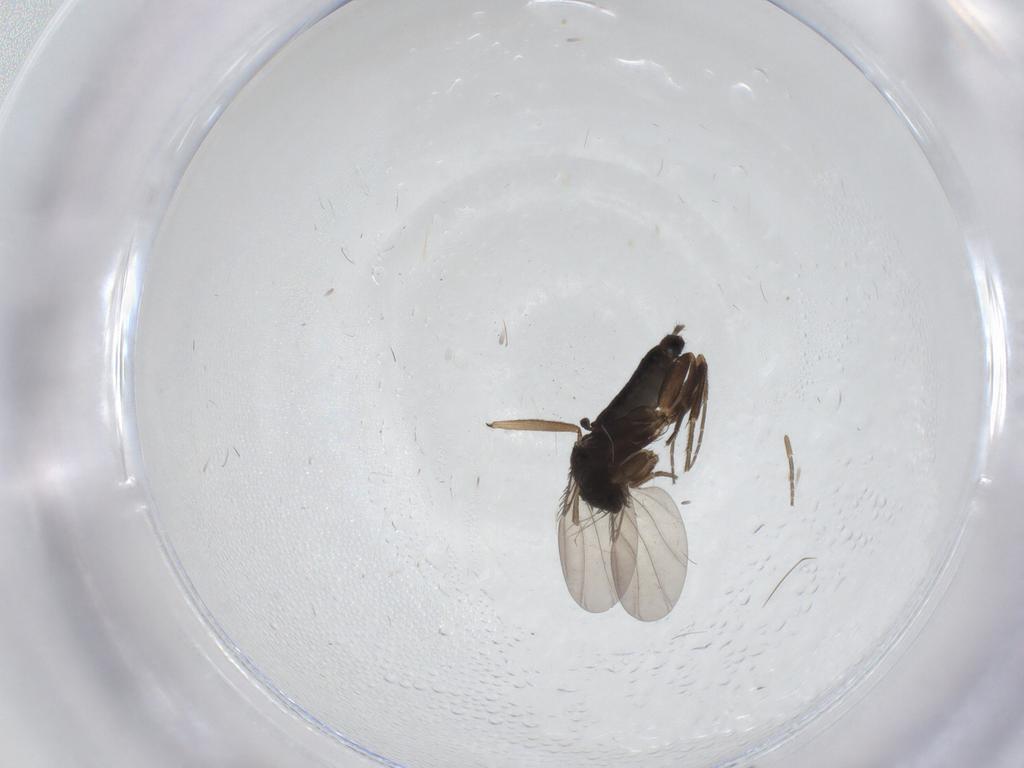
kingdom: Animalia
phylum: Arthropoda
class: Insecta
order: Diptera
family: Phoridae
